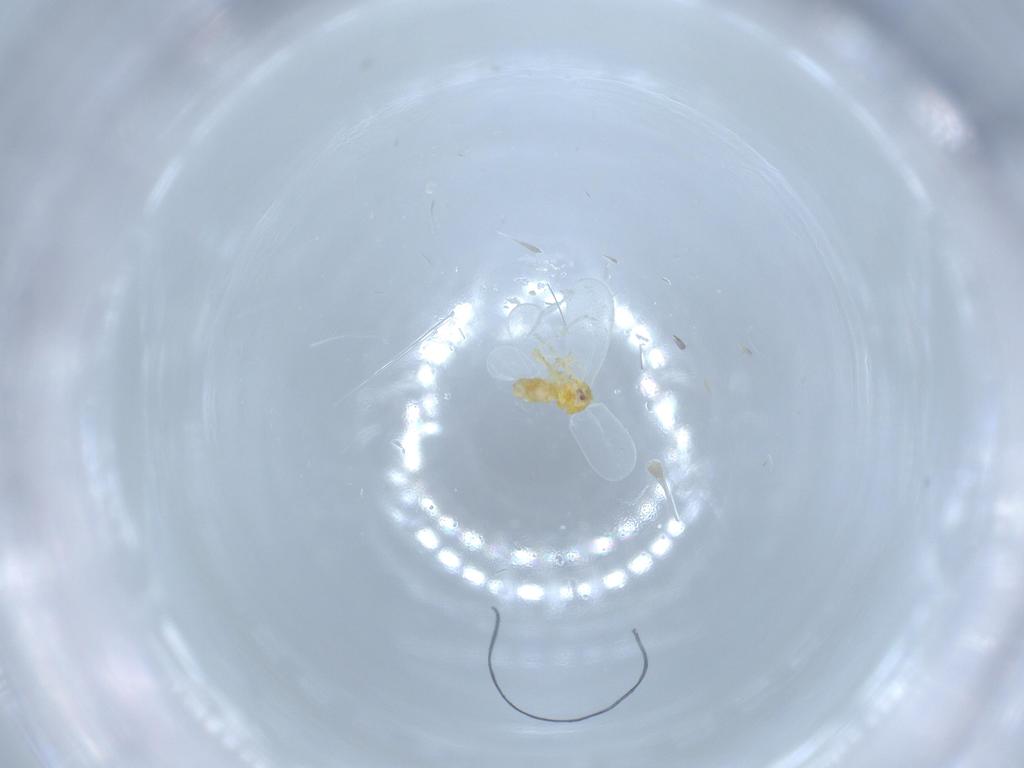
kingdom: Animalia
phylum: Arthropoda
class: Insecta
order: Hemiptera
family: Aleyrodidae
